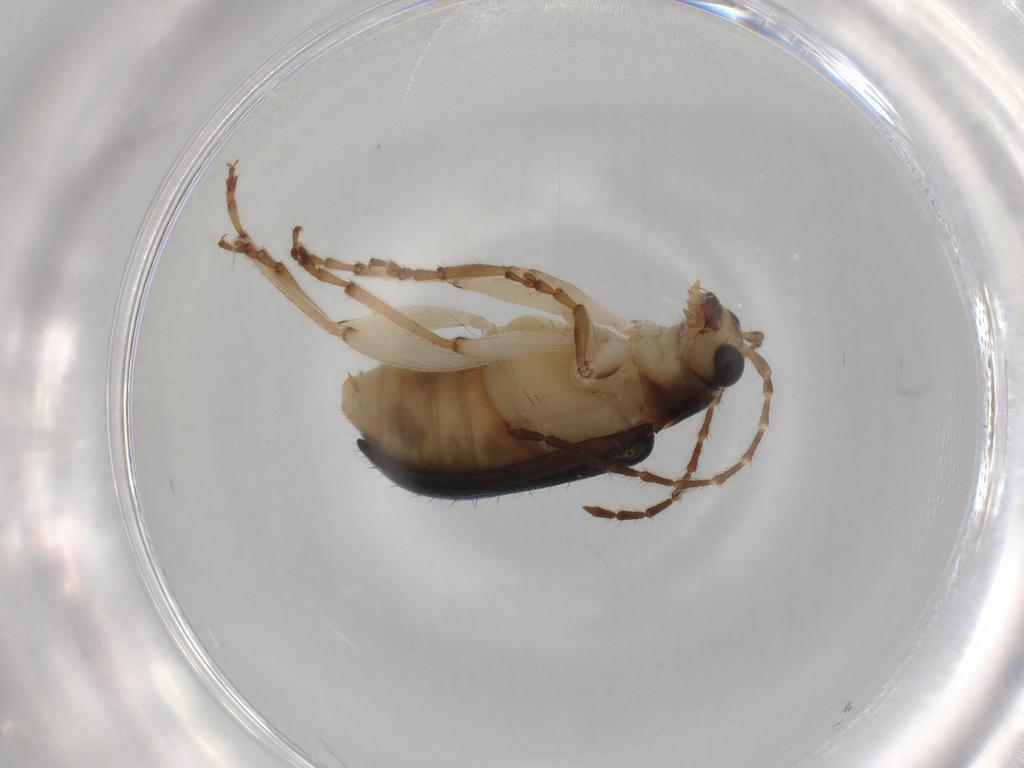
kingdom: Animalia
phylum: Arthropoda
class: Insecta
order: Coleoptera
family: Chrysomelidae
